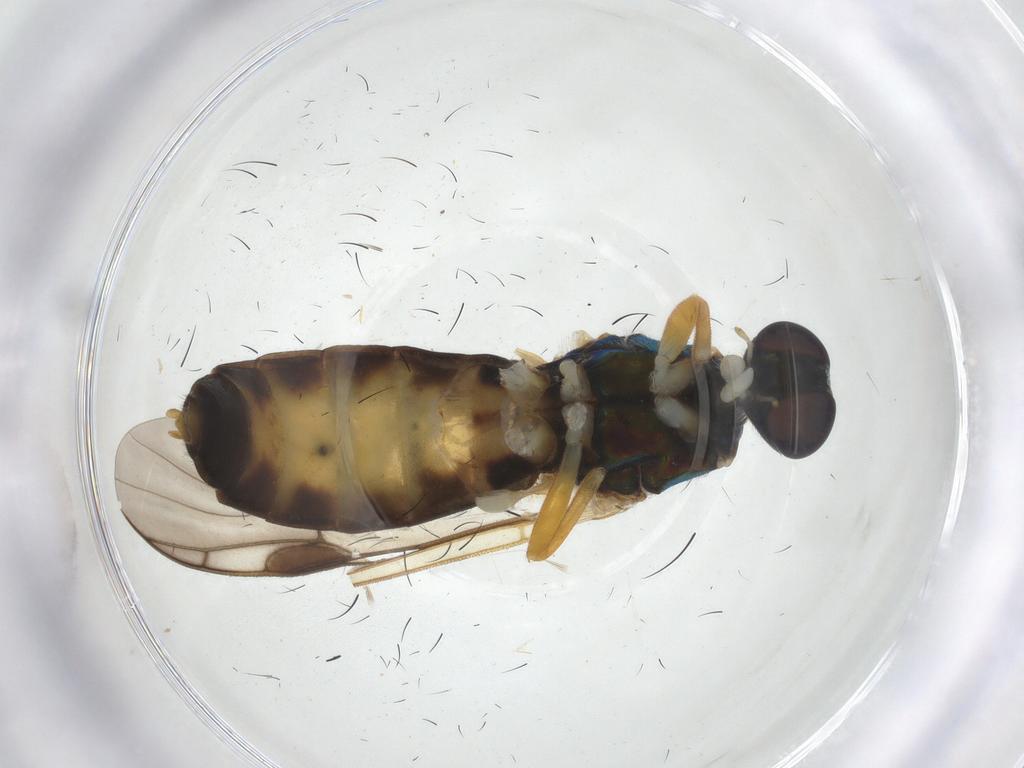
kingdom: Animalia
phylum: Arthropoda
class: Insecta
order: Diptera
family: Stratiomyidae
